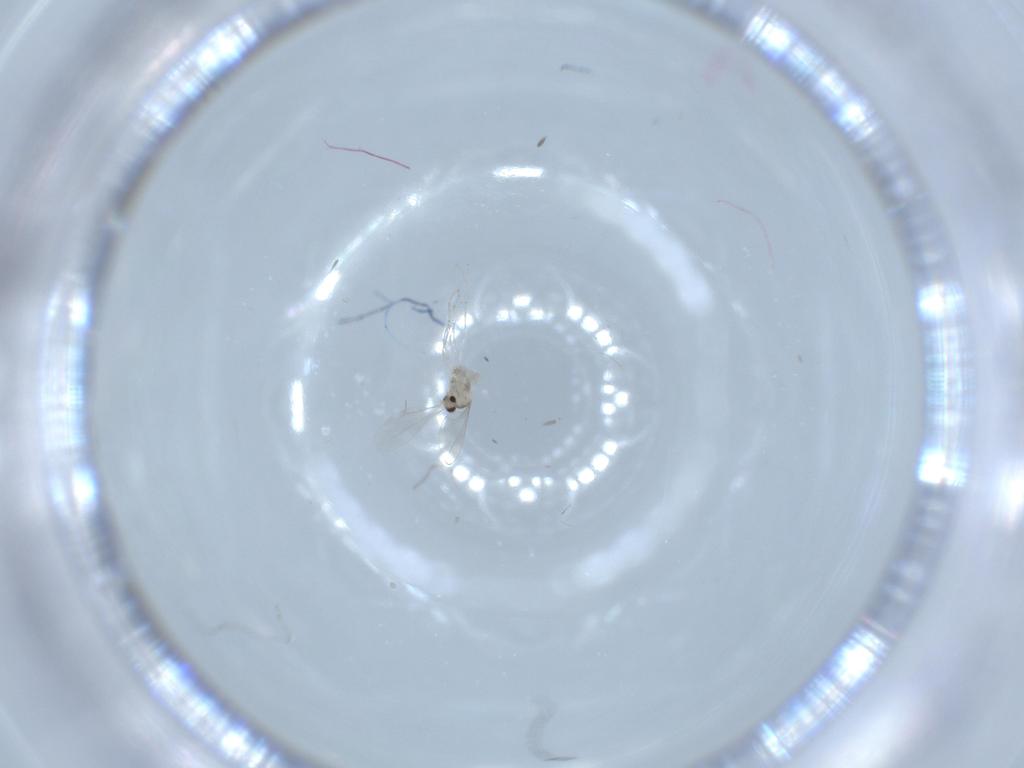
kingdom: Animalia
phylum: Arthropoda
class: Insecta
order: Diptera
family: Cecidomyiidae
